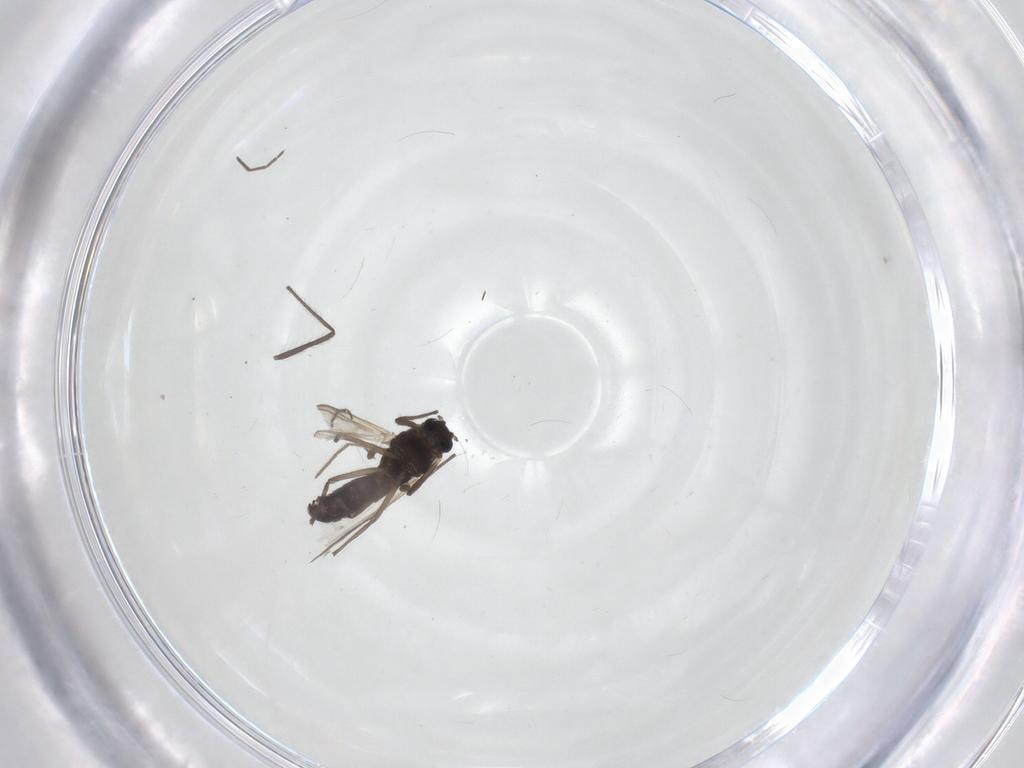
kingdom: Animalia
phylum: Arthropoda
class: Insecta
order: Diptera
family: Chironomidae
